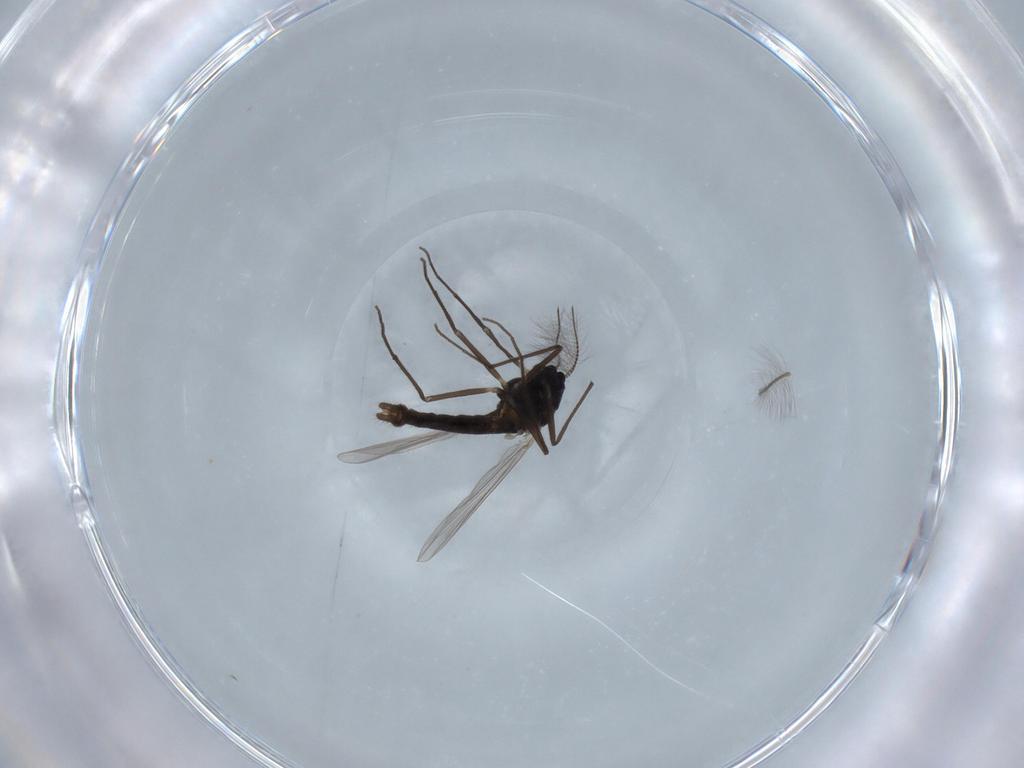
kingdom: Animalia
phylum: Arthropoda
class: Insecta
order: Diptera
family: Chironomidae
